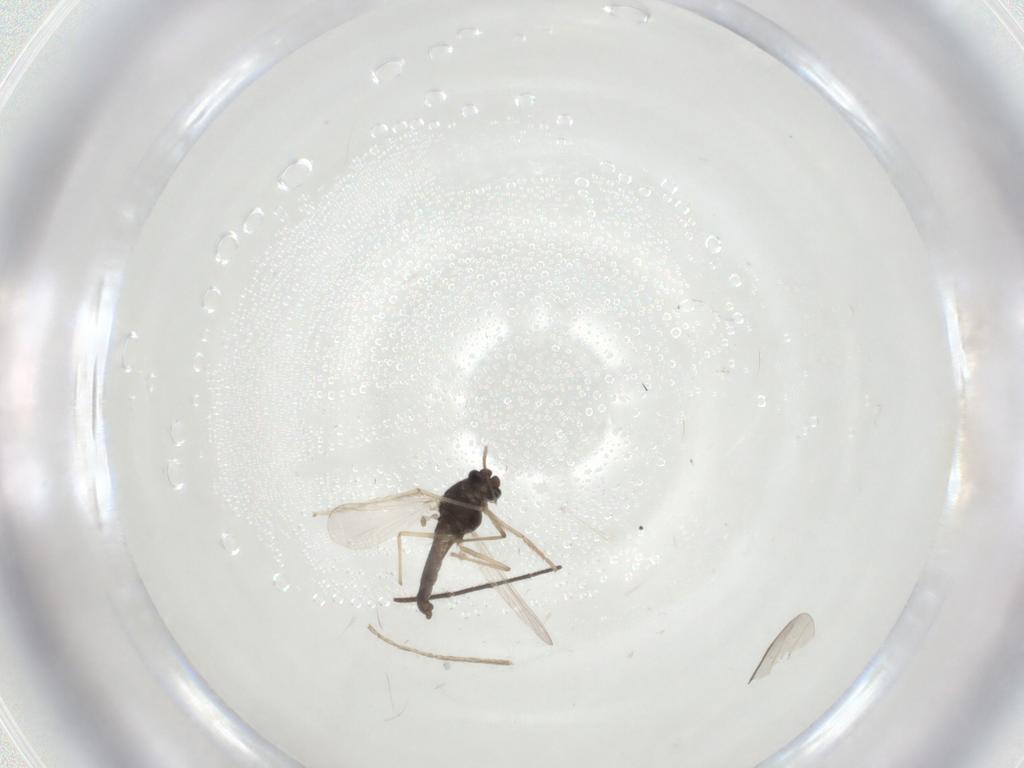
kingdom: Animalia
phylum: Arthropoda
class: Insecta
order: Diptera
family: Chironomidae
